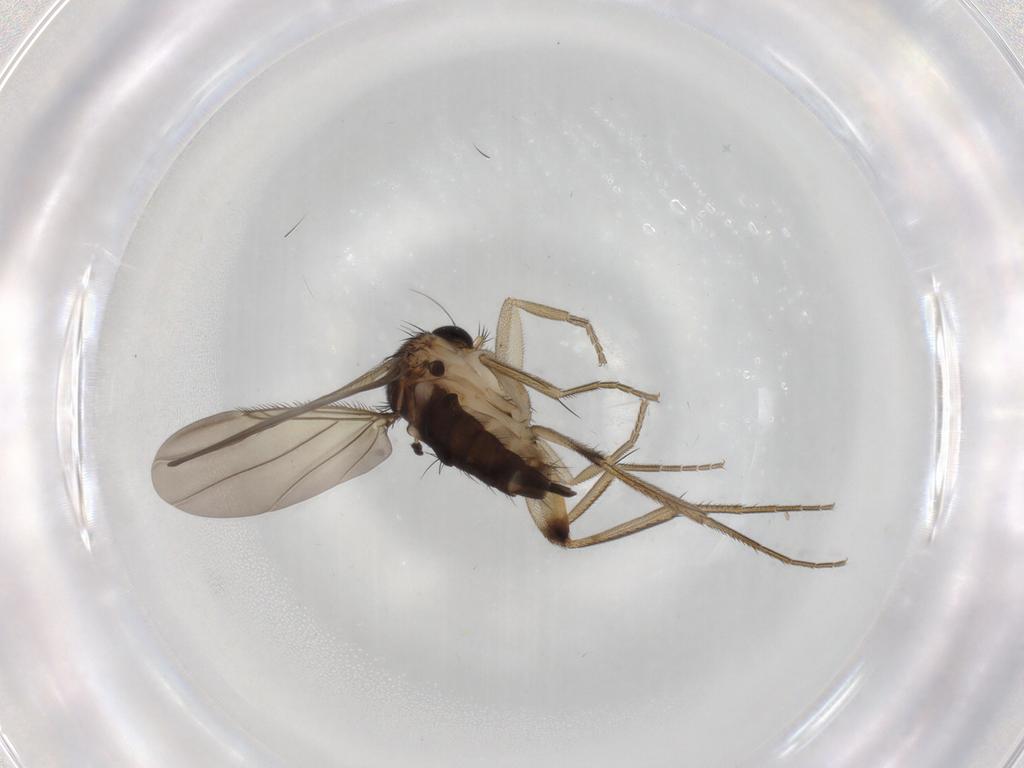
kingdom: Animalia
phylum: Arthropoda
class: Insecta
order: Diptera
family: Phoridae
